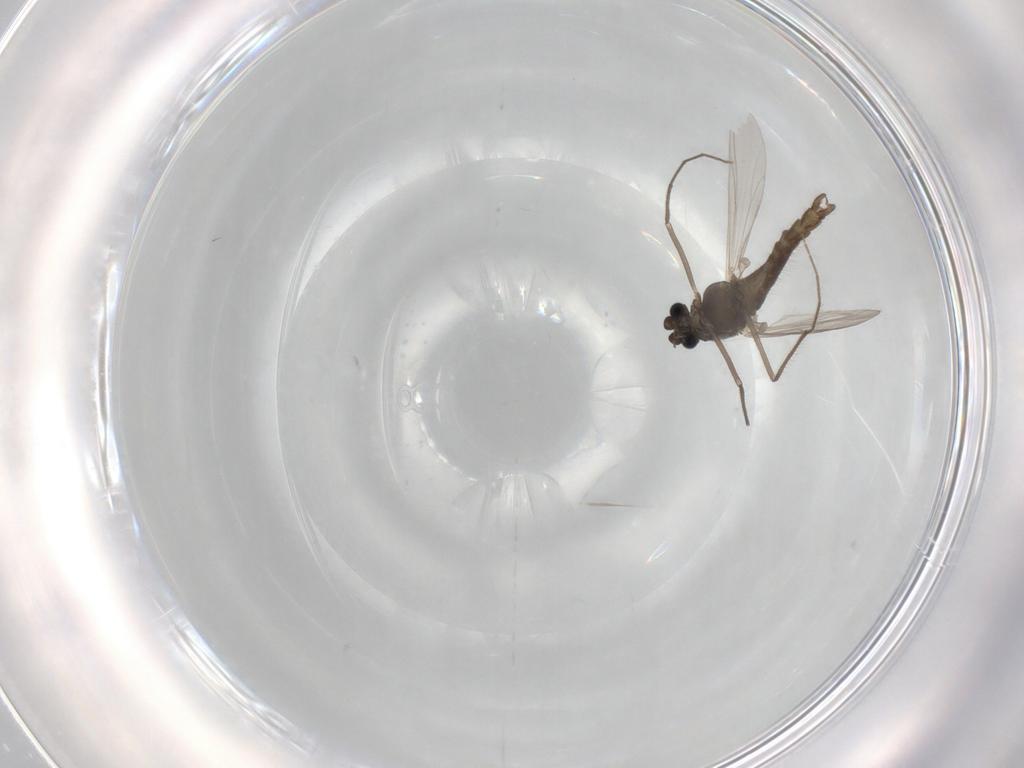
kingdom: Animalia
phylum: Arthropoda
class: Insecta
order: Diptera
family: Chironomidae
